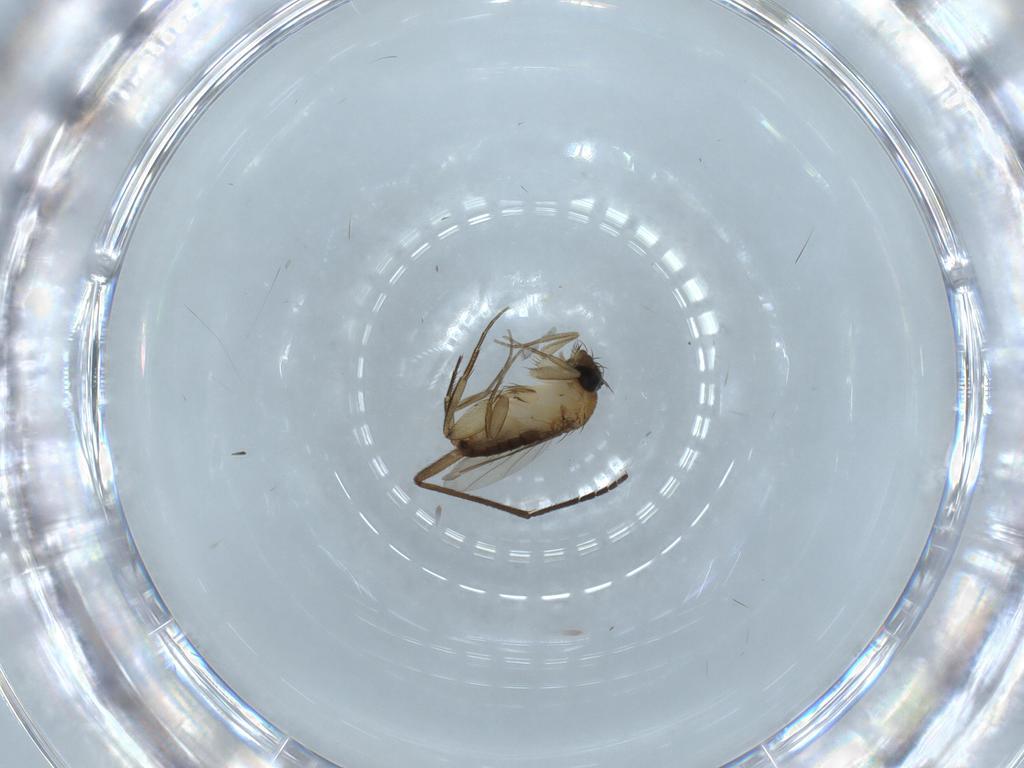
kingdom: Animalia
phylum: Arthropoda
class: Insecta
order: Diptera
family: Phoridae
